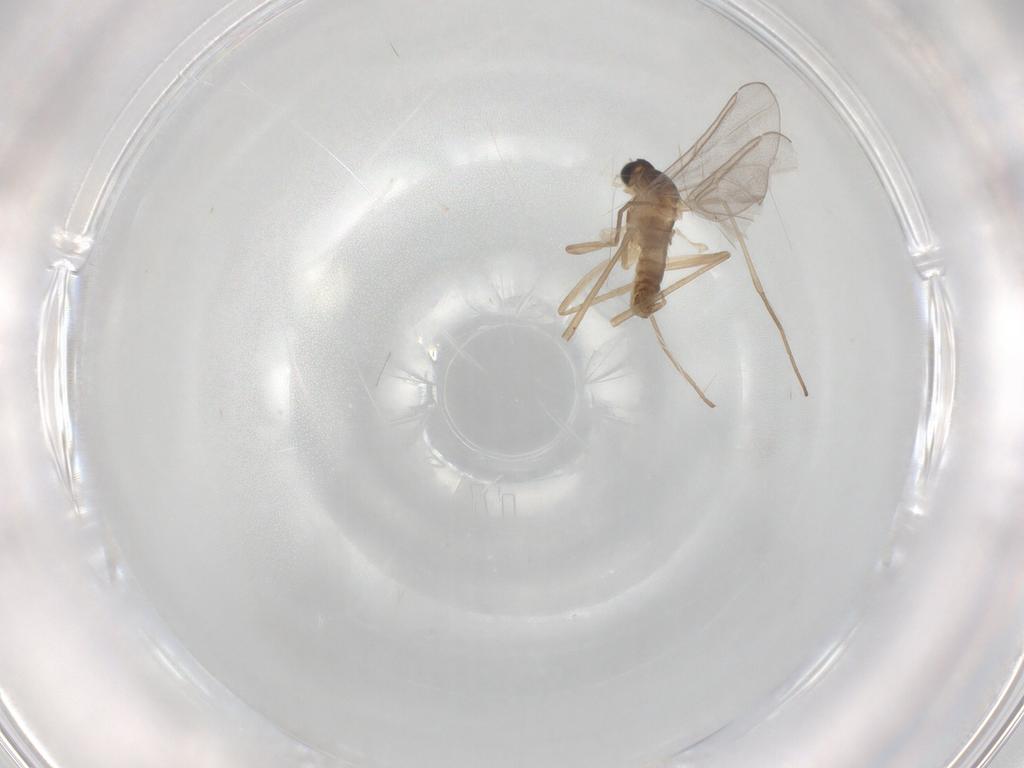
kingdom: Animalia
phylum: Arthropoda
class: Insecta
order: Diptera
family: Cecidomyiidae
